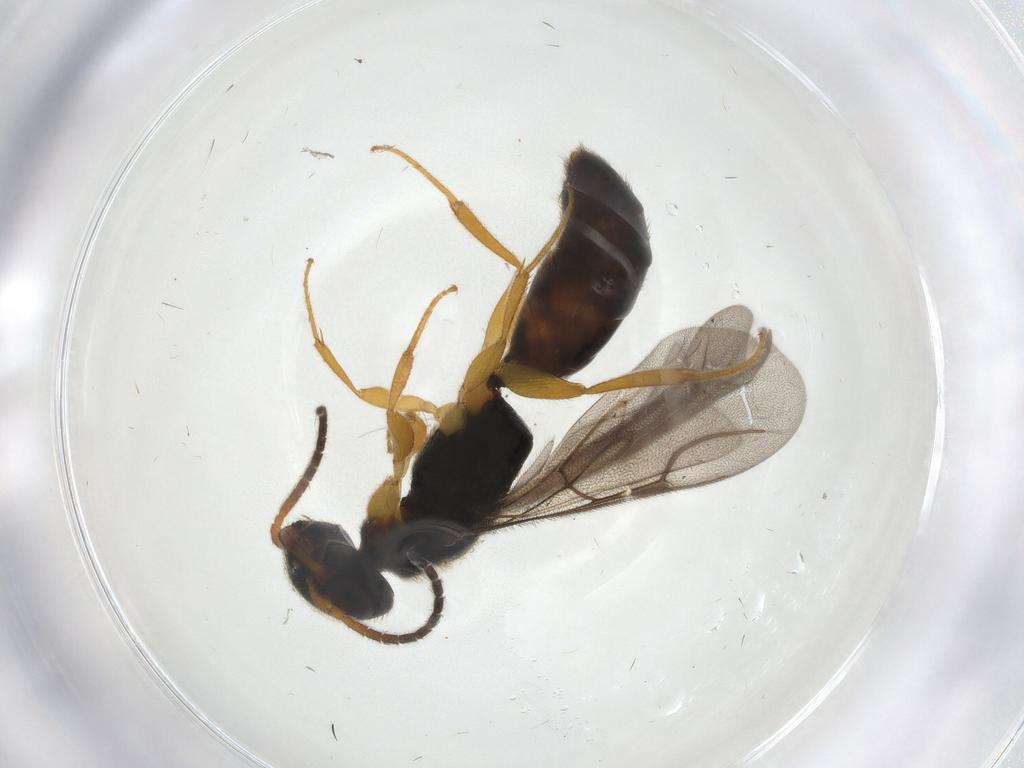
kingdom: Animalia
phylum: Arthropoda
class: Insecta
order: Hymenoptera
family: Bethylidae
